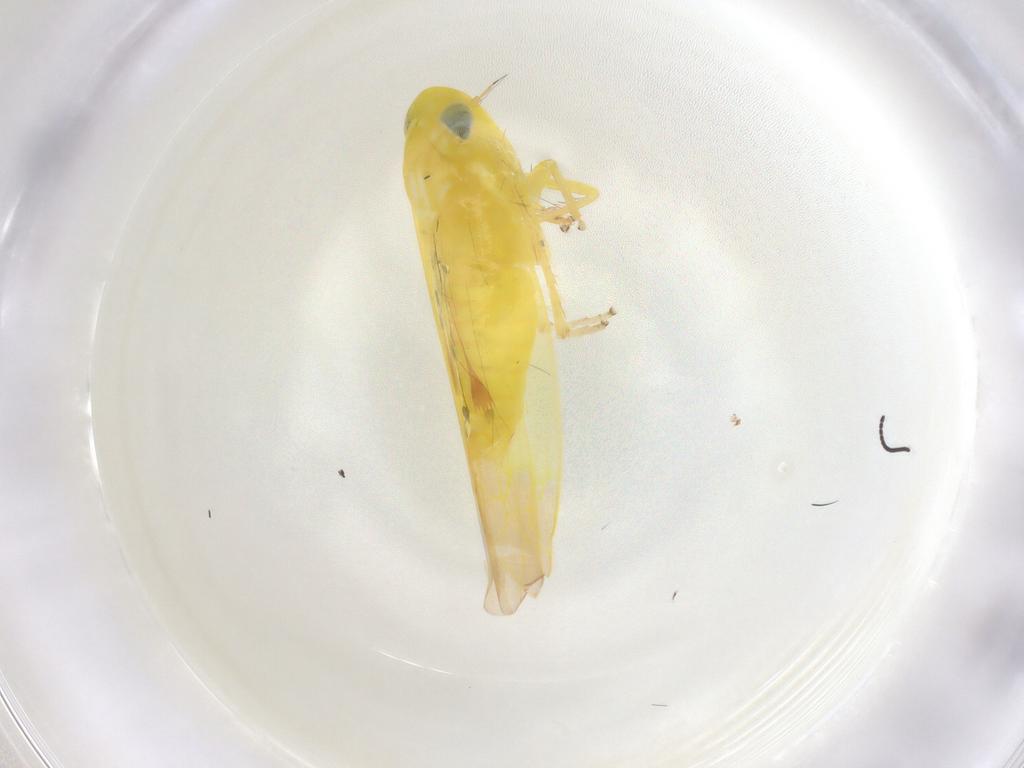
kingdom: Animalia
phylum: Arthropoda
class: Insecta
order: Hemiptera
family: Cicadellidae
